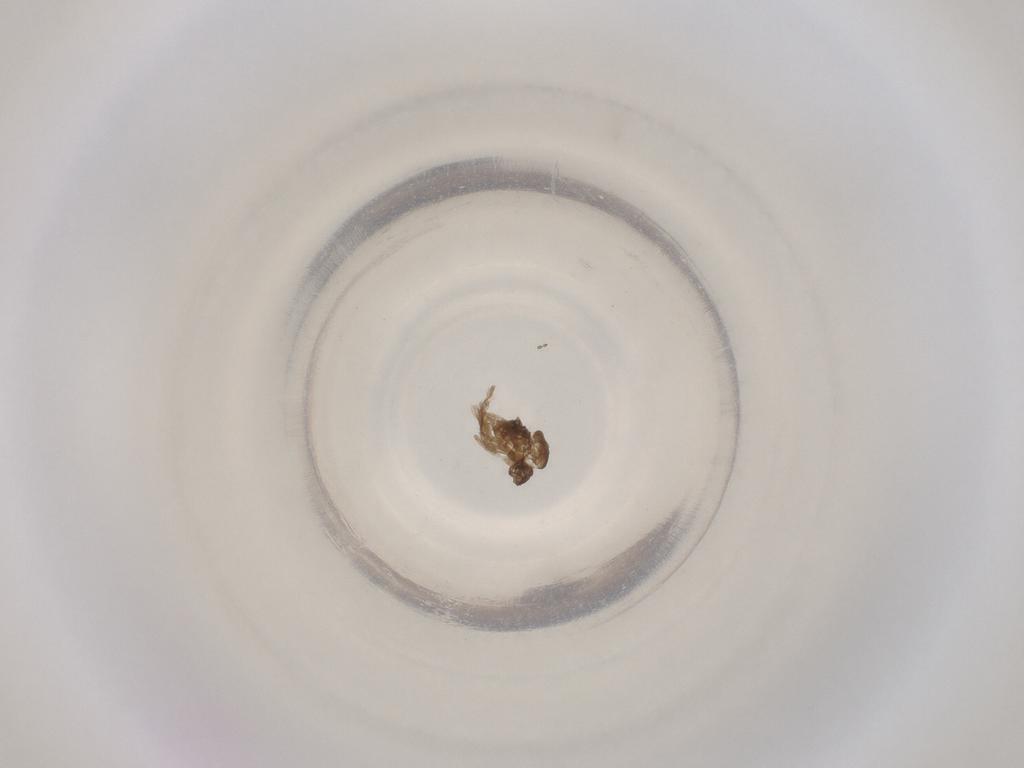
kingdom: Animalia
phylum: Arthropoda
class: Insecta
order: Diptera
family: Cecidomyiidae
